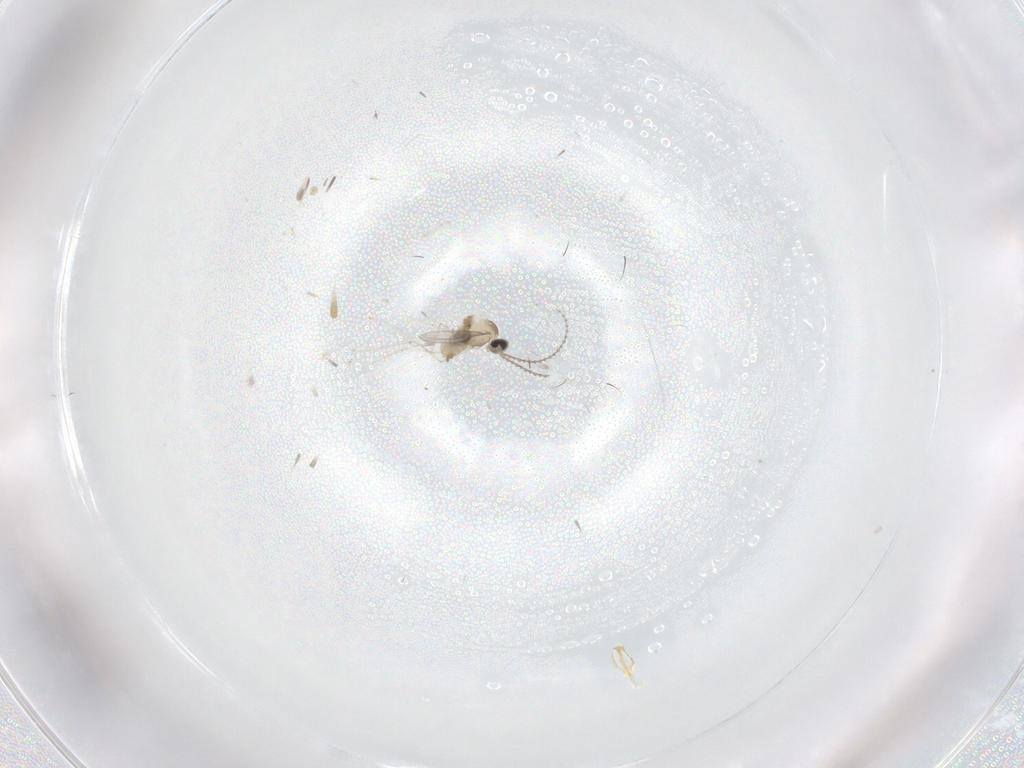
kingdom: Animalia
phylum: Arthropoda
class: Insecta
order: Diptera
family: Cecidomyiidae
